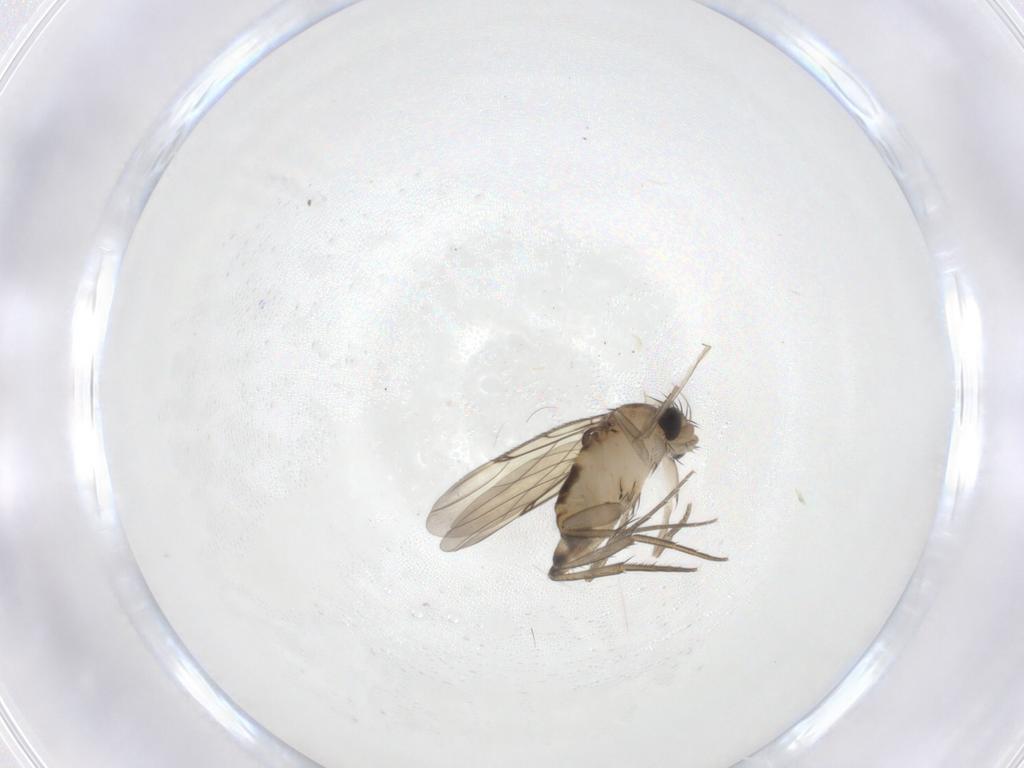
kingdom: Animalia
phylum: Arthropoda
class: Insecta
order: Diptera
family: Phoridae
